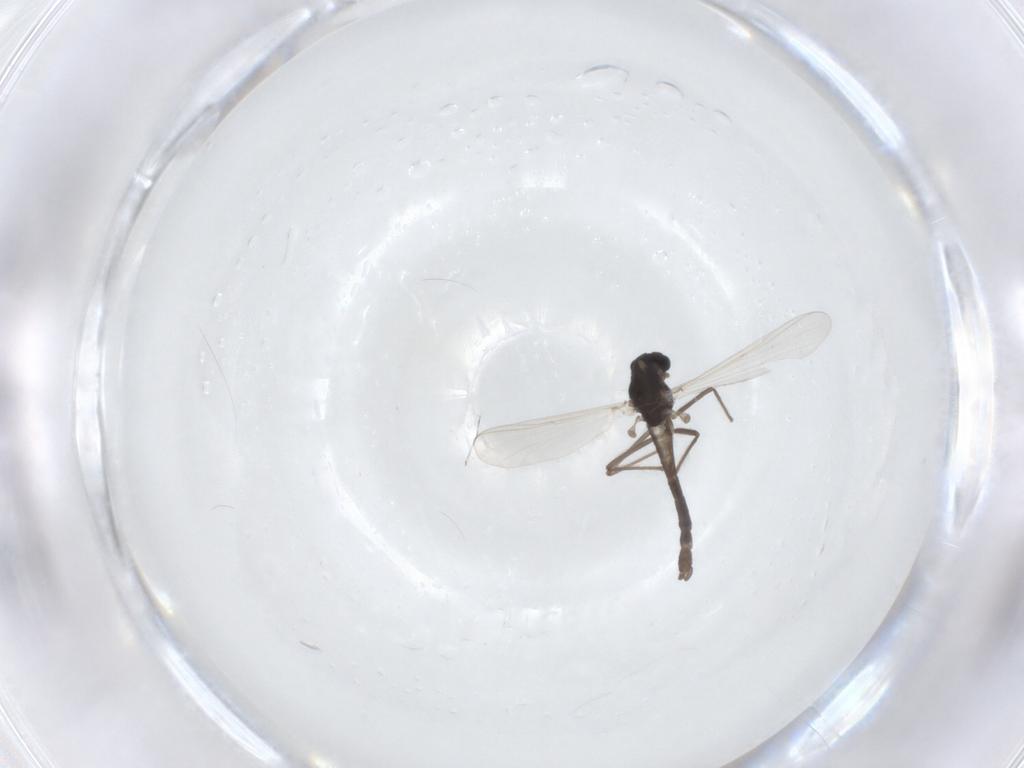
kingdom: Animalia
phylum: Arthropoda
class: Insecta
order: Diptera
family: Chironomidae
